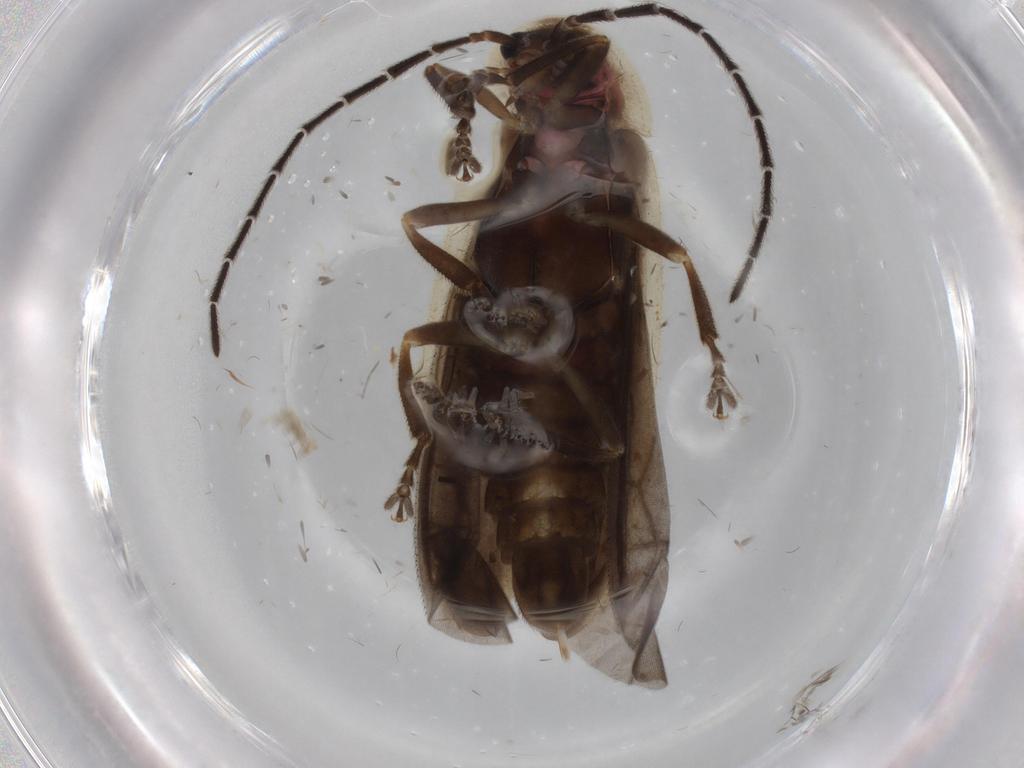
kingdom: Animalia
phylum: Arthropoda
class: Insecta
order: Coleoptera
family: Lampyridae
